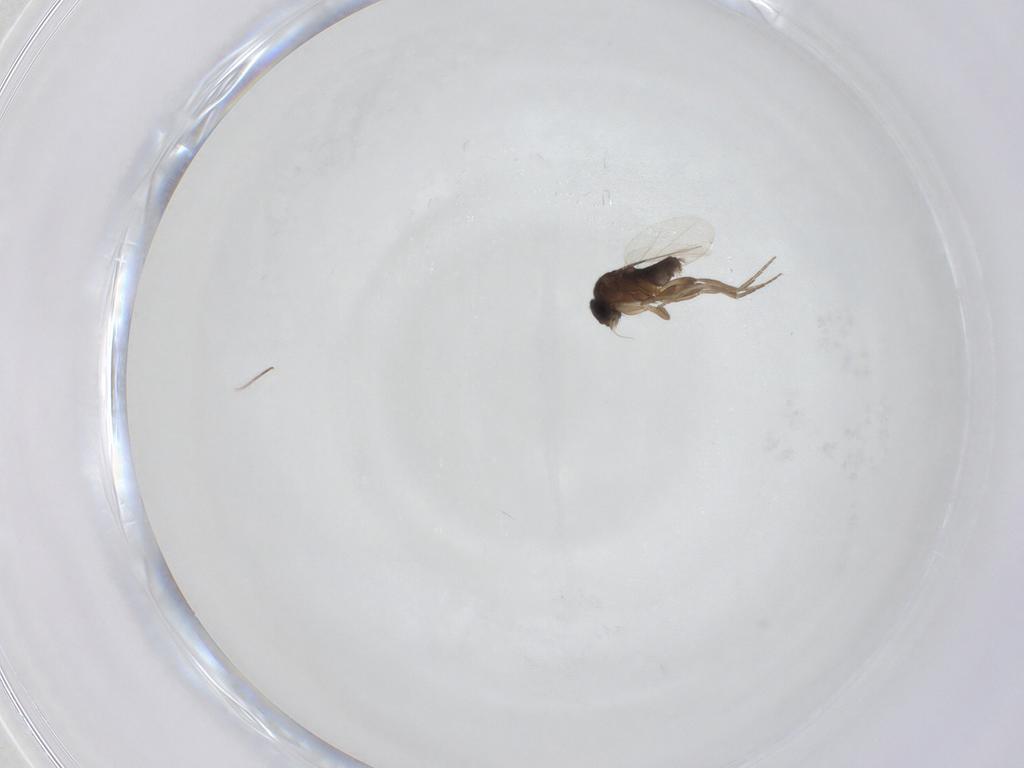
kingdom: Animalia
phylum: Arthropoda
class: Insecta
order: Diptera
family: Phoridae
